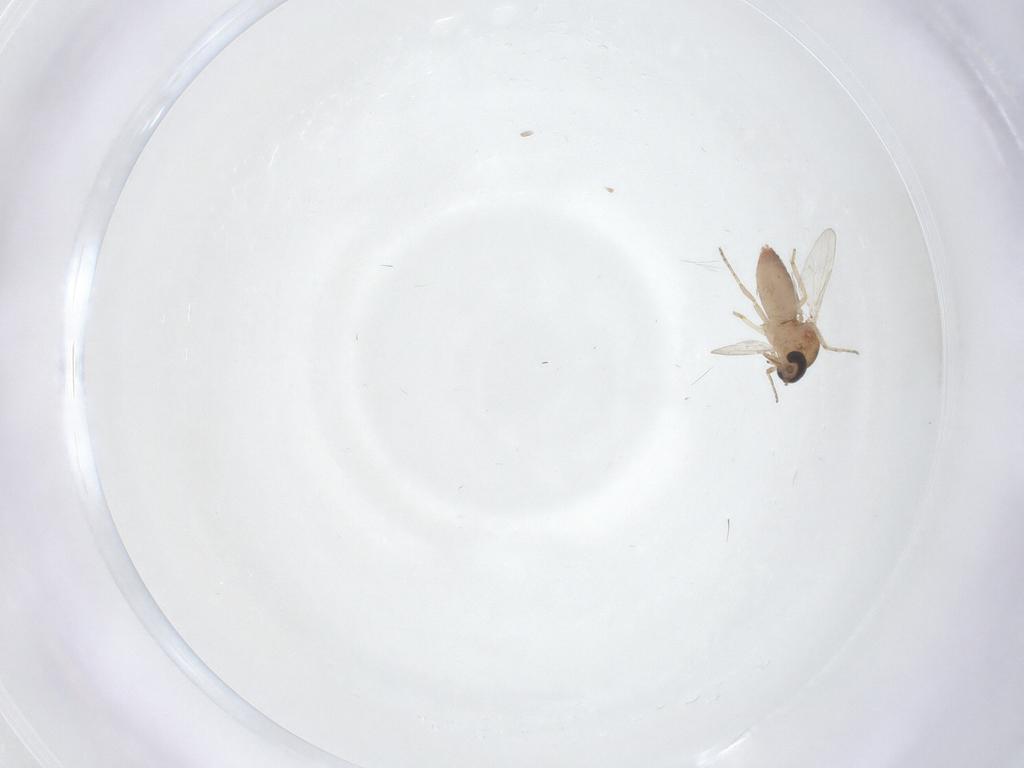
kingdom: Animalia
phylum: Arthropoda
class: Insecta
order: Diptera
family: Ceratopogonidae
